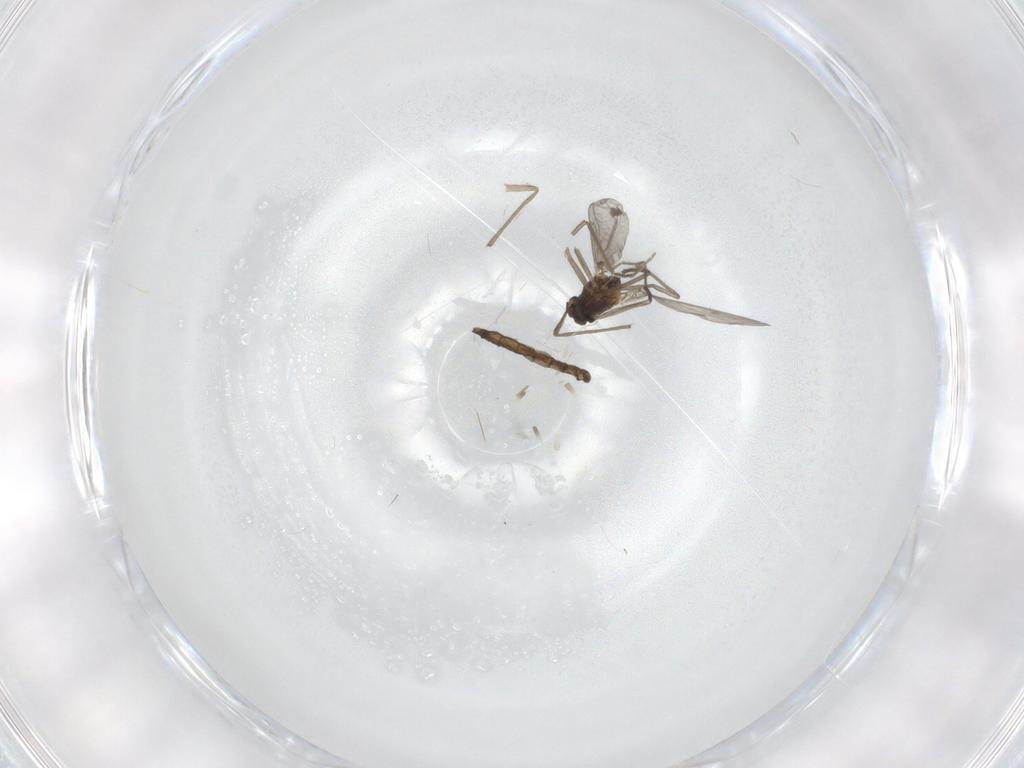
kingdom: Animalia
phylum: Arthropoda
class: Insecta
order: Diptera
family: Chironomidae
